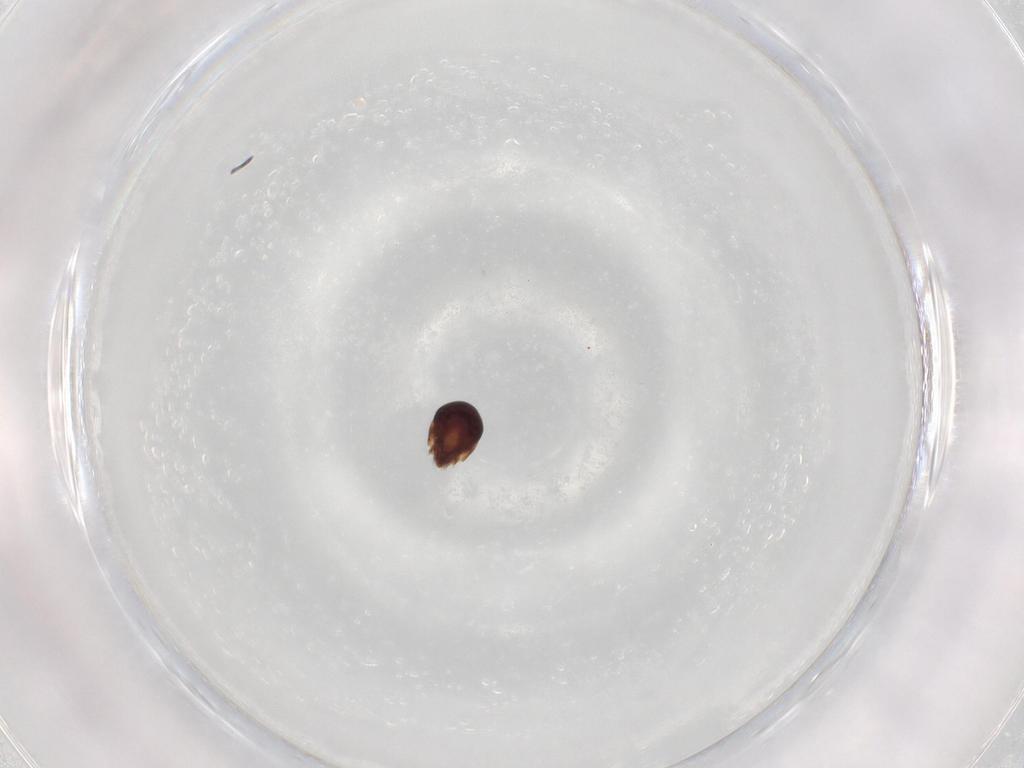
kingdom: Animalia
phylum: Arthropoda
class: Arachnida
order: Sarcoptiformes
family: Ceratozetidae
